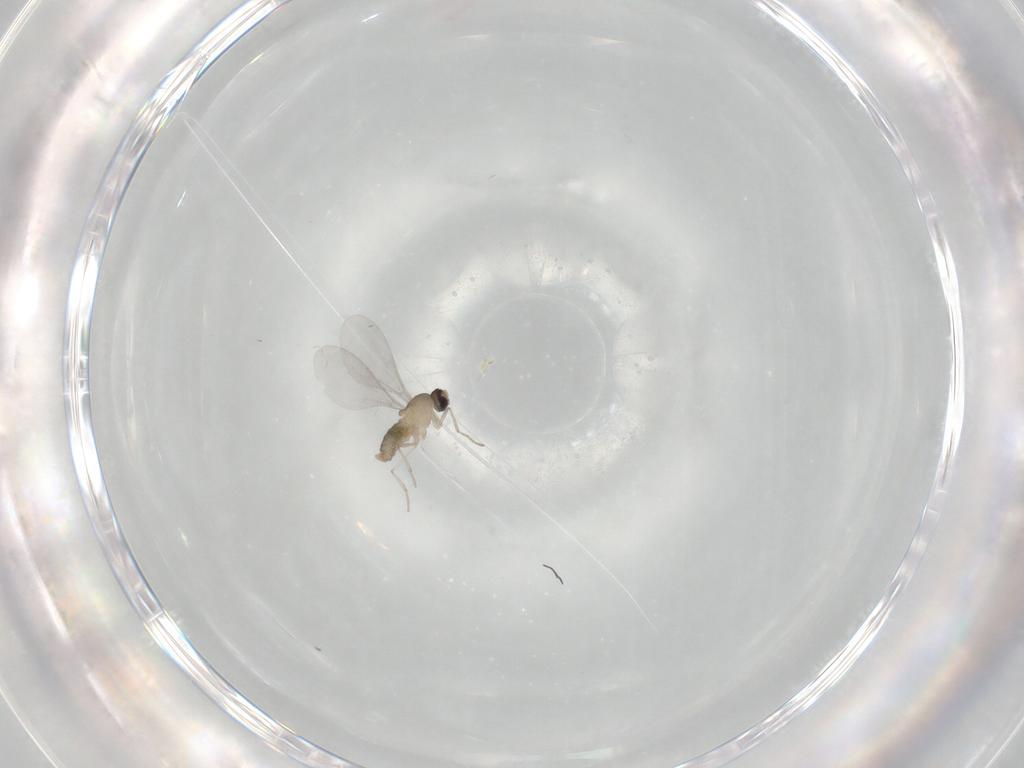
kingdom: Animalia
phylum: Arthropoda
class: Insecta
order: Diptera
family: Cecidomyiidae
